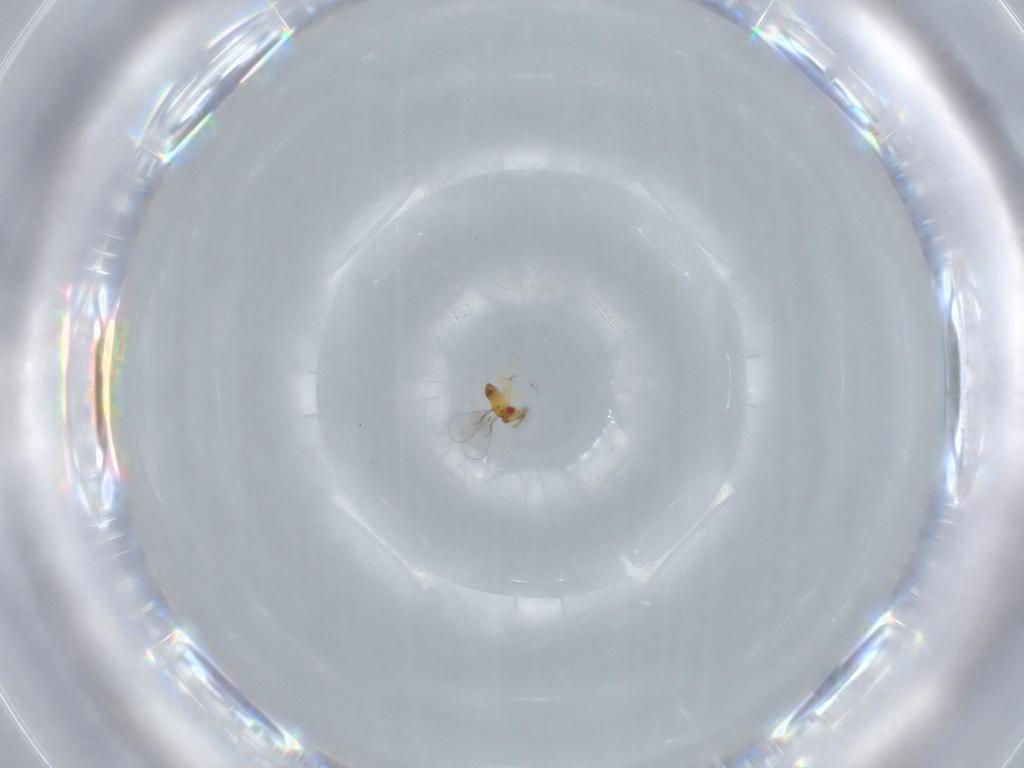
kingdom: Animalia
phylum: Arthropoda
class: Insecta
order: Hymenoptera
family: Trichogrammatidae
